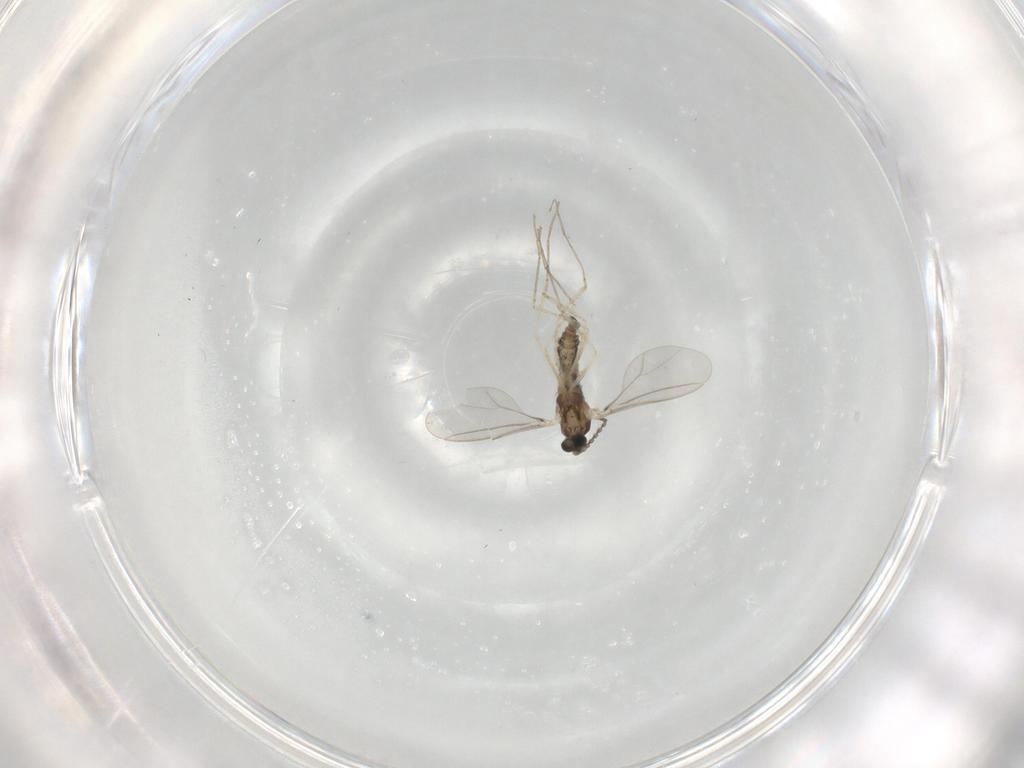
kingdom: Animalia
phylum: Arthropoda
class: Insecta
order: Diptera
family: Cecidomyiidae
